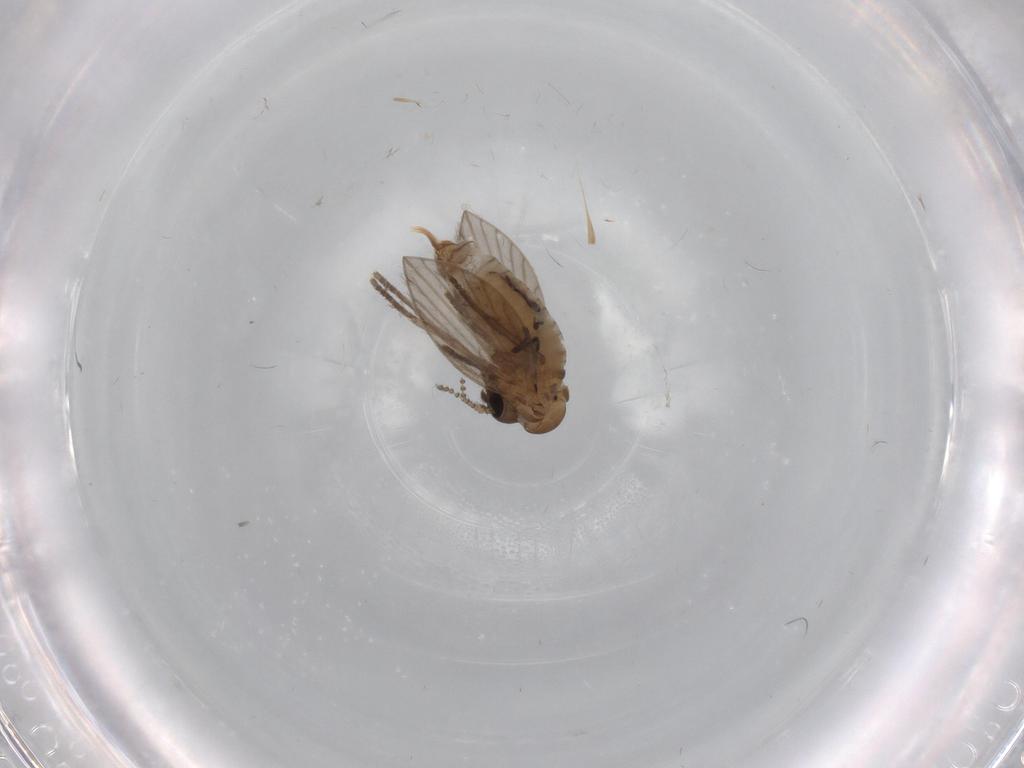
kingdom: Animalia
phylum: Arthropoda
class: Insecta
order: Diptera
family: Psychodidae
